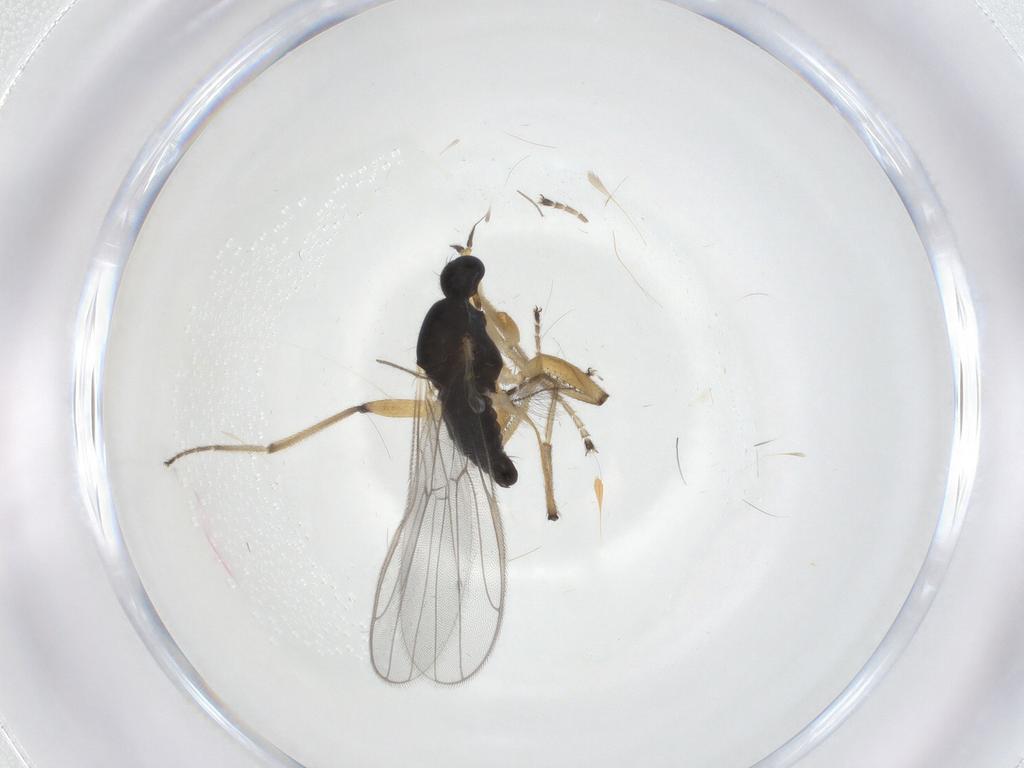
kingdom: Animalia
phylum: Arthropoda
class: Insecta
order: Diptera
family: Hybotidae
